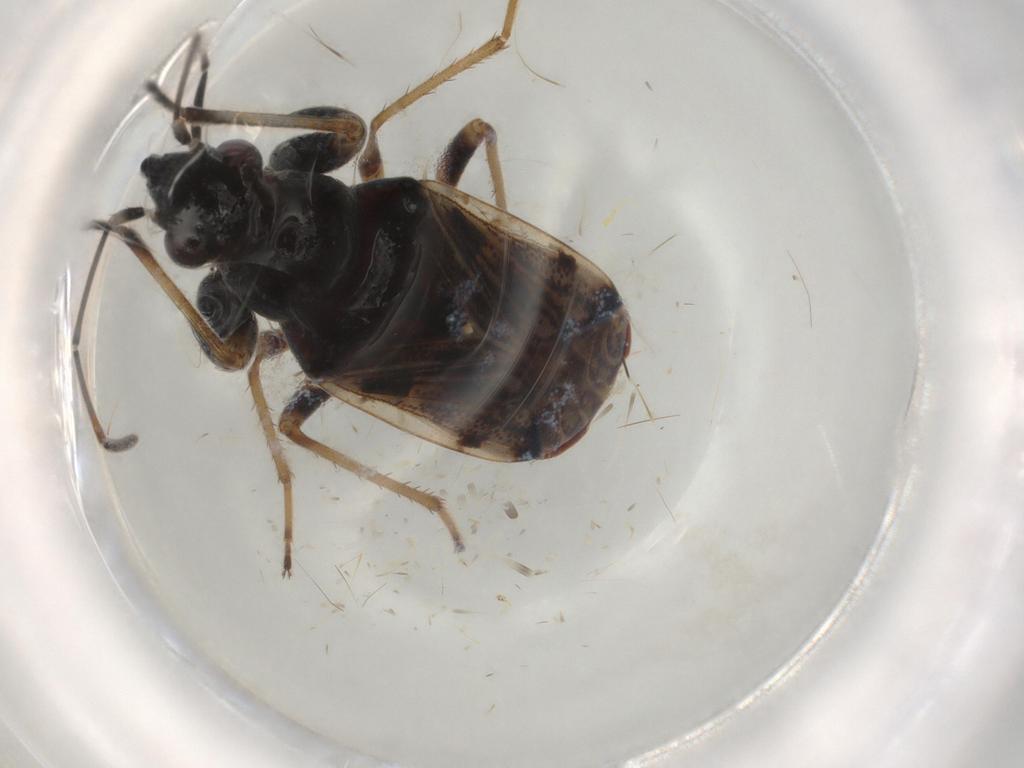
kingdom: Animalia
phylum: Arthropoda
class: Insecta
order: Hemiptera
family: Rhyparochromidae
